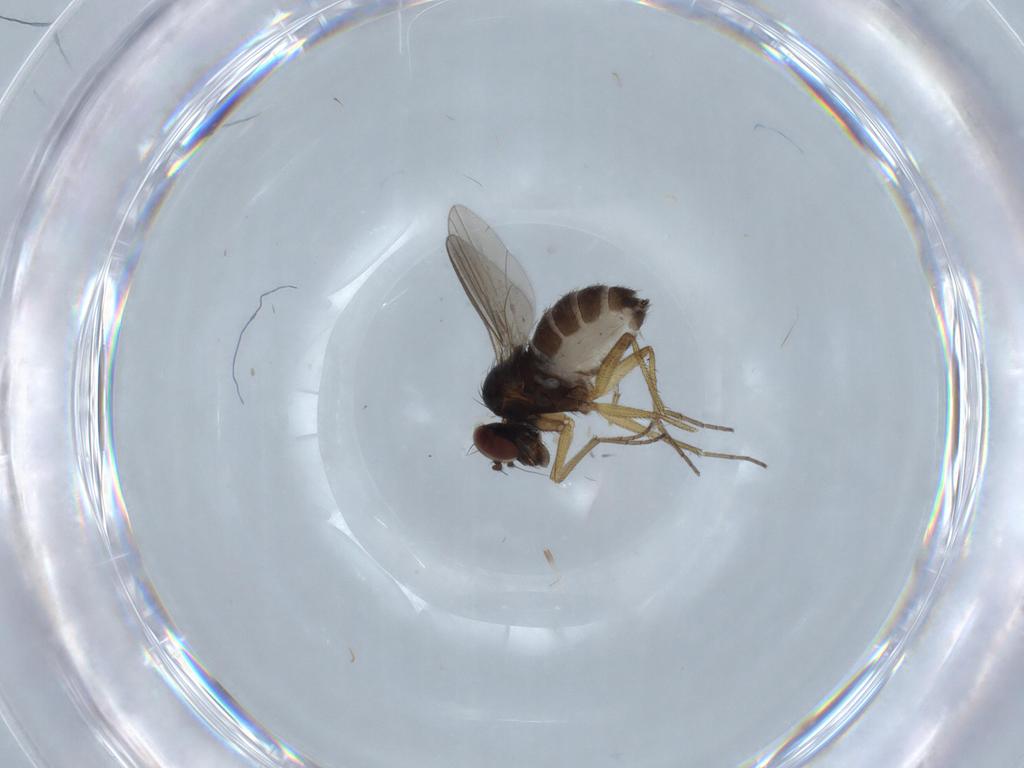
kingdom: Animalia
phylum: Arthropoda
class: Insecta
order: Diptera
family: Dolichopodidae
